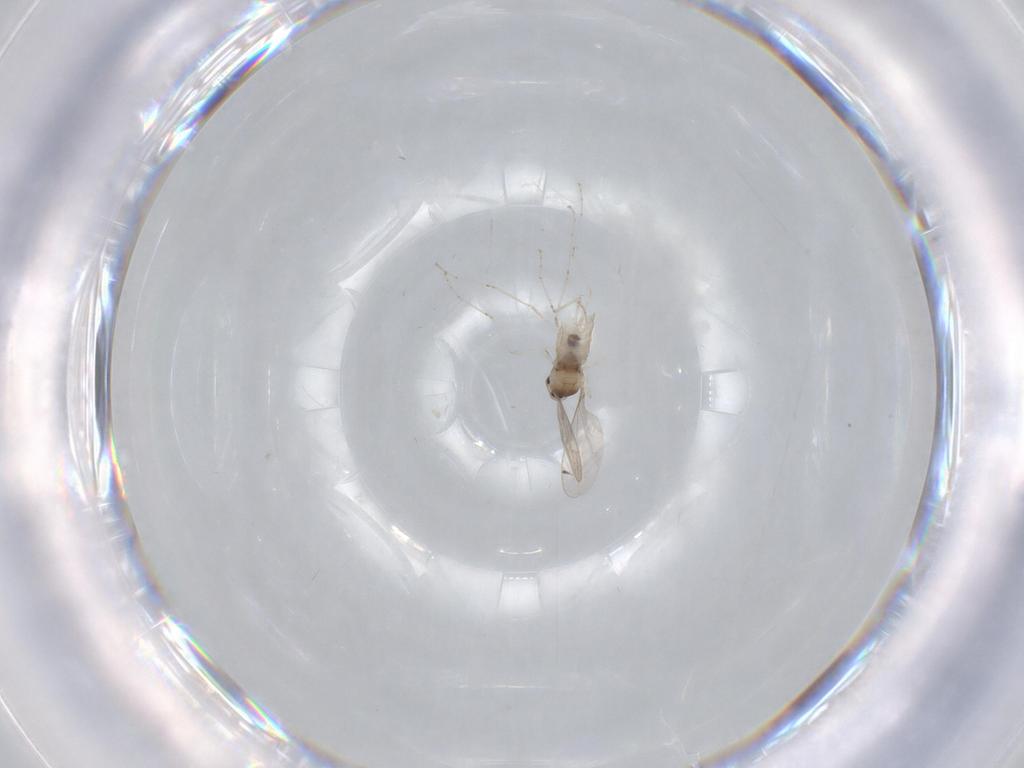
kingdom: Animalia
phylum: Arthropoda
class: Insecta
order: Diptera
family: Cecidomyiidae
